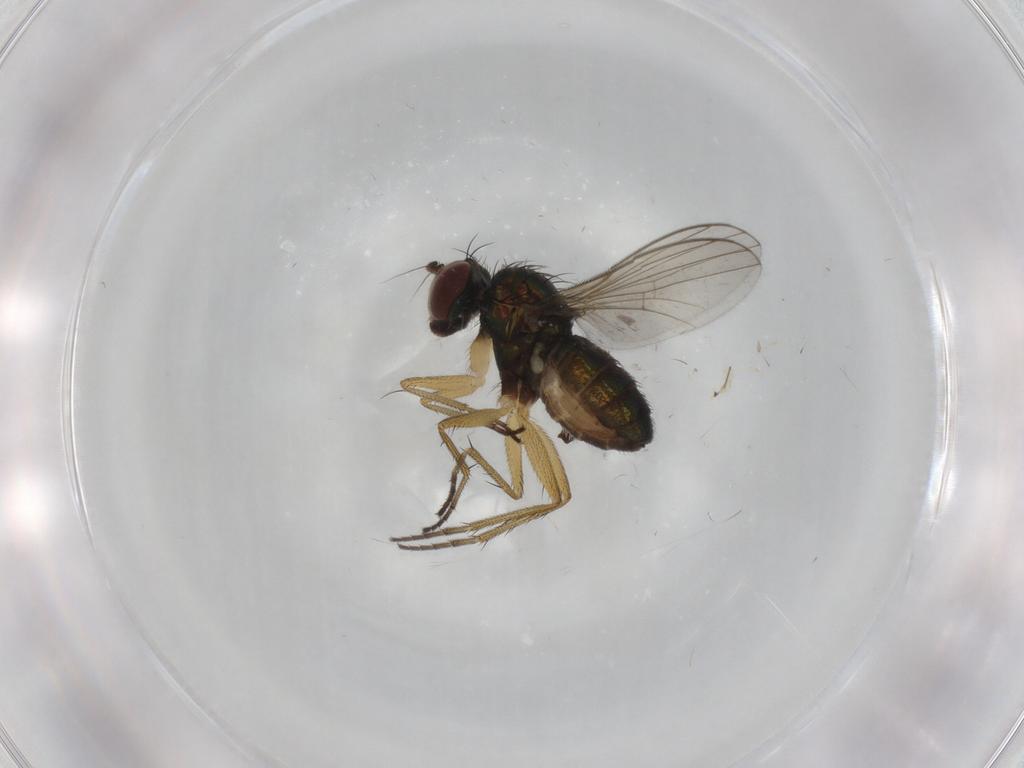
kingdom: Animalia
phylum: Arthropoda
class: Insecta
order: Diptera
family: Dolichopodidae
